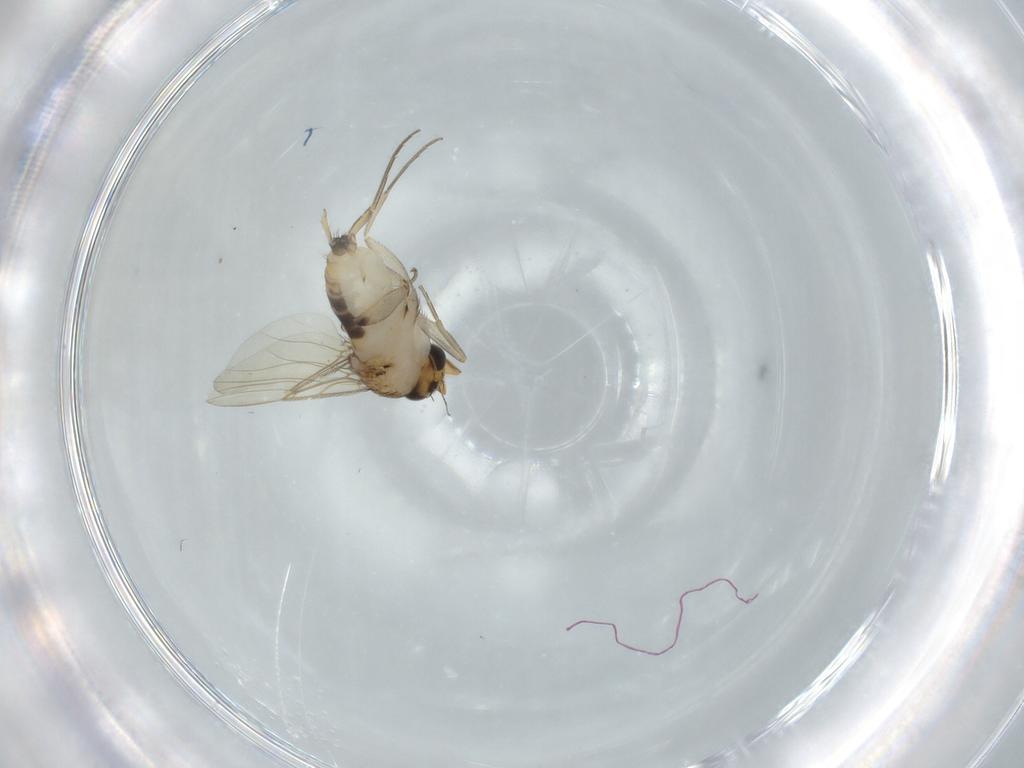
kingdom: Animalia
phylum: Arthropoda
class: Insecta
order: Diptera
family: Phoridae
